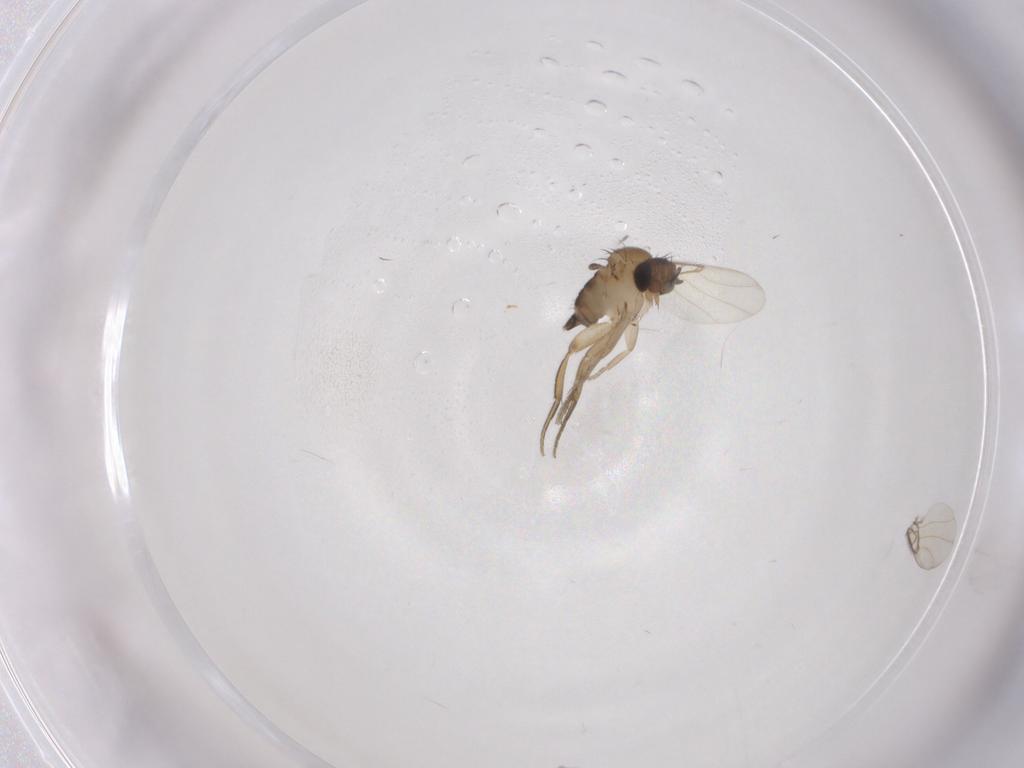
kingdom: Animalia
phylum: Arthropoda
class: Insecta
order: Diptera
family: Phoridae
